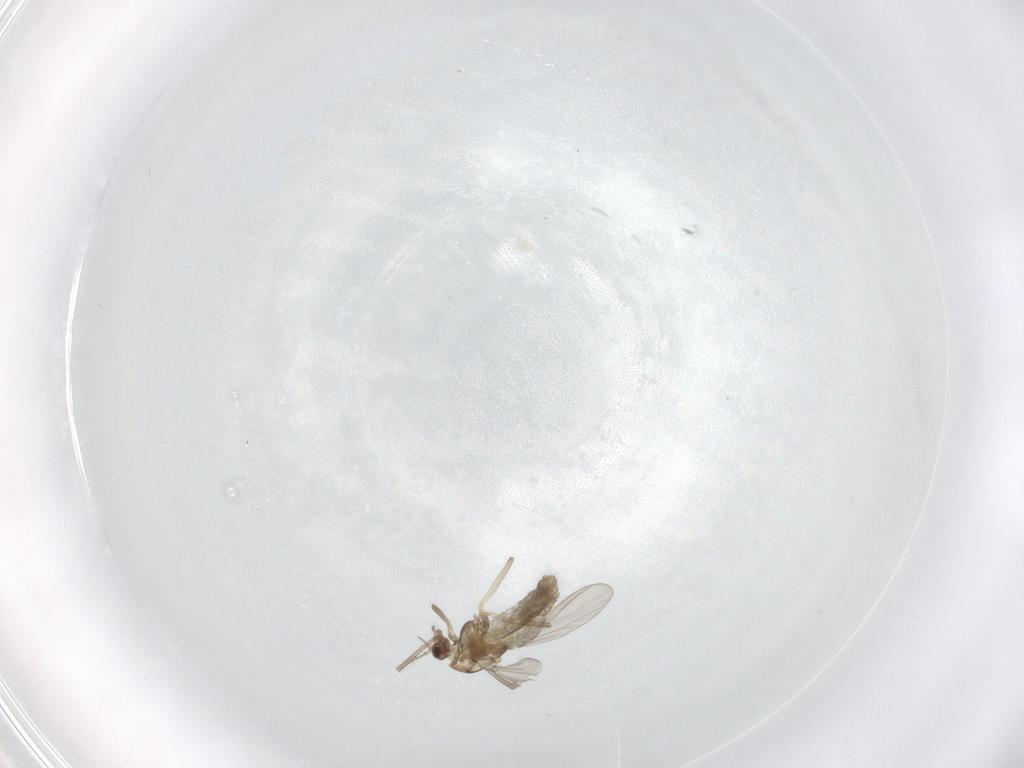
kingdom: Animalia
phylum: Arthropoda
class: Insecta
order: Diptera
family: Chironomidae
